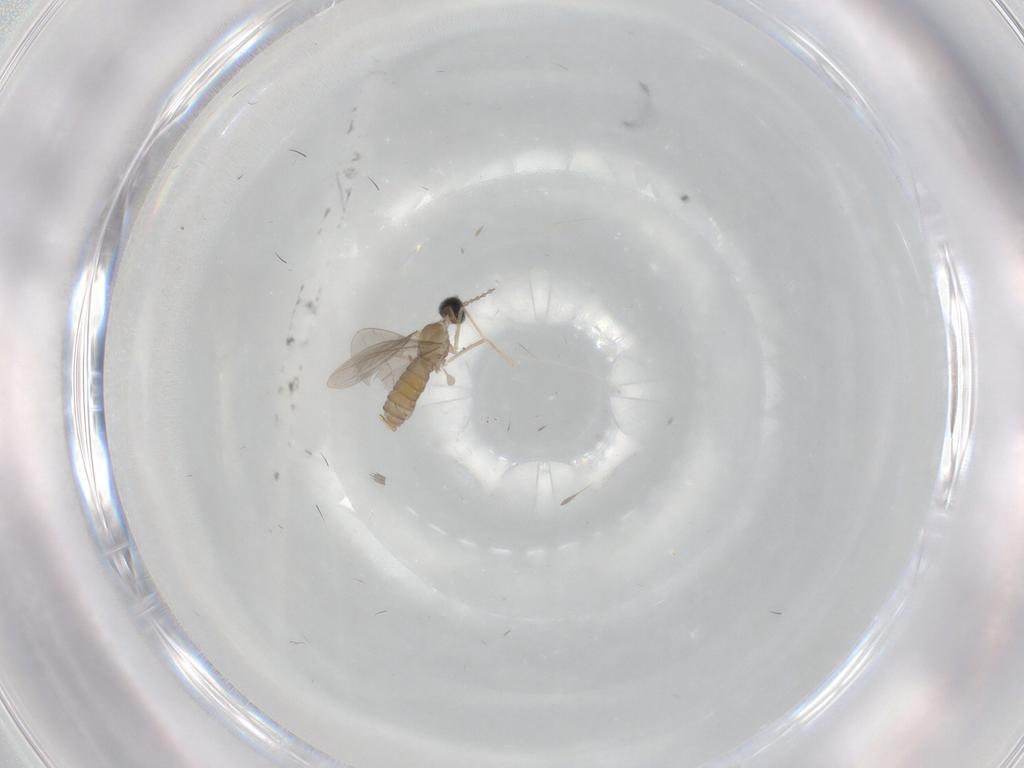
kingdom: Animalia
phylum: Arthropoda
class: Insecta
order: Diptera
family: Cecidomyiidae
